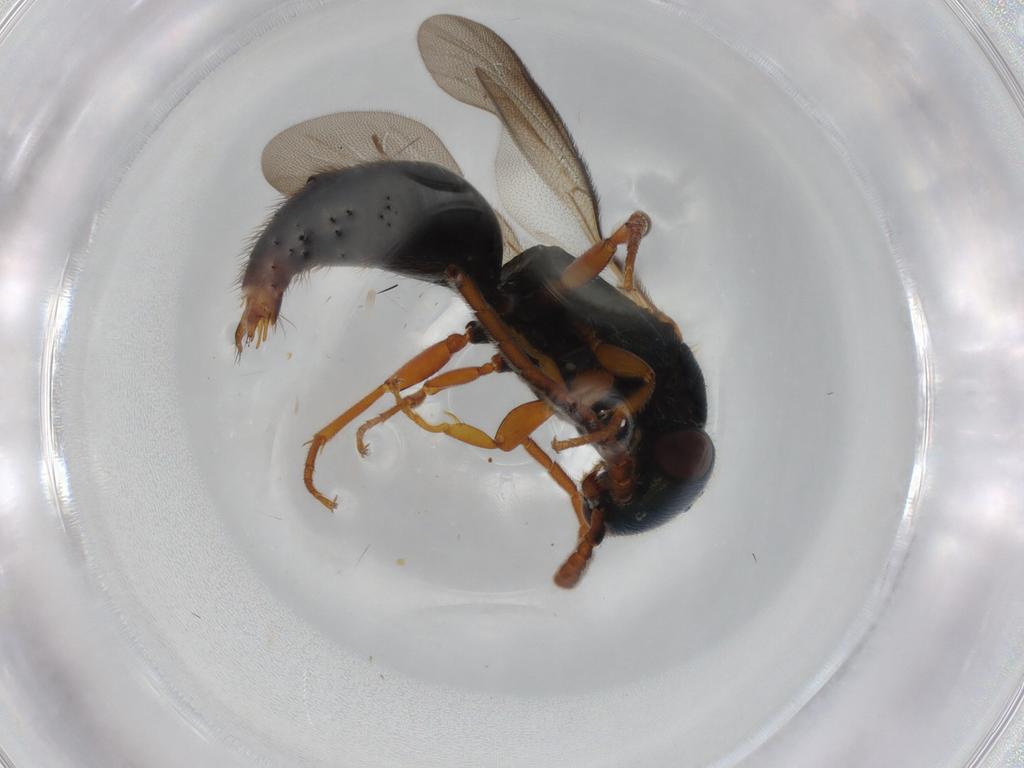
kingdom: Animalia
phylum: Arthropoda
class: Insecta
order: Hymenoptera
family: Bethylidae
